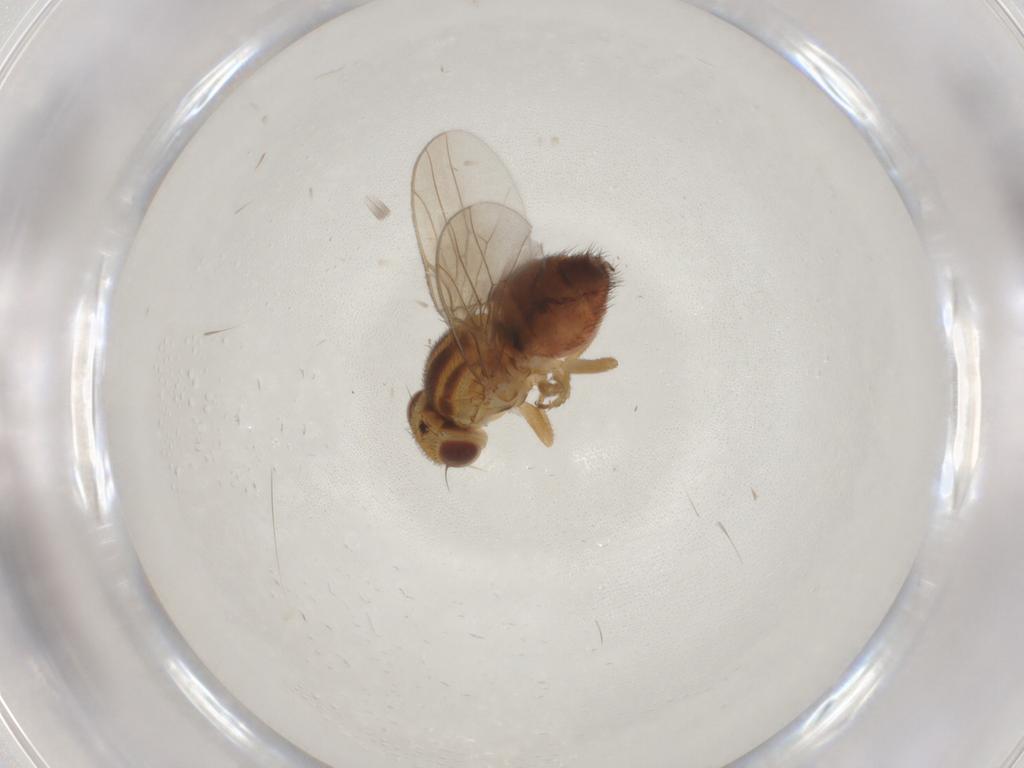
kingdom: Animalia
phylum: Arthropoda
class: Insecta
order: Diptera
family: Chloropidae
